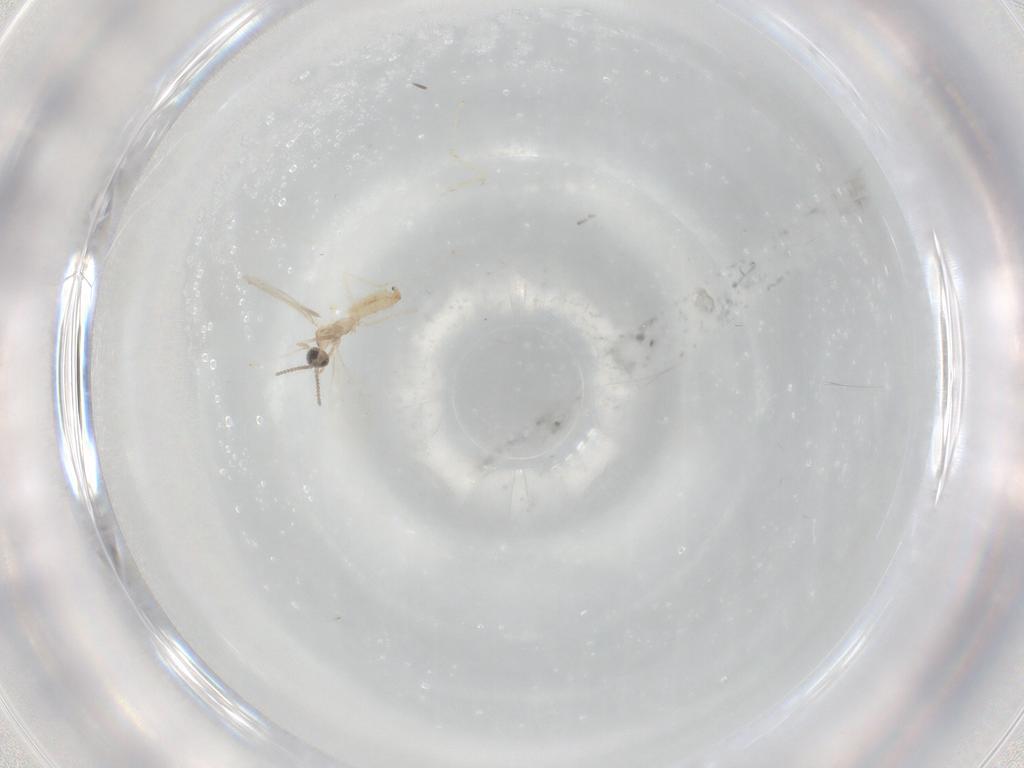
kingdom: Animalia
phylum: Arthropoda
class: Insecta
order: Diptera
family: Cecidomyiidae
